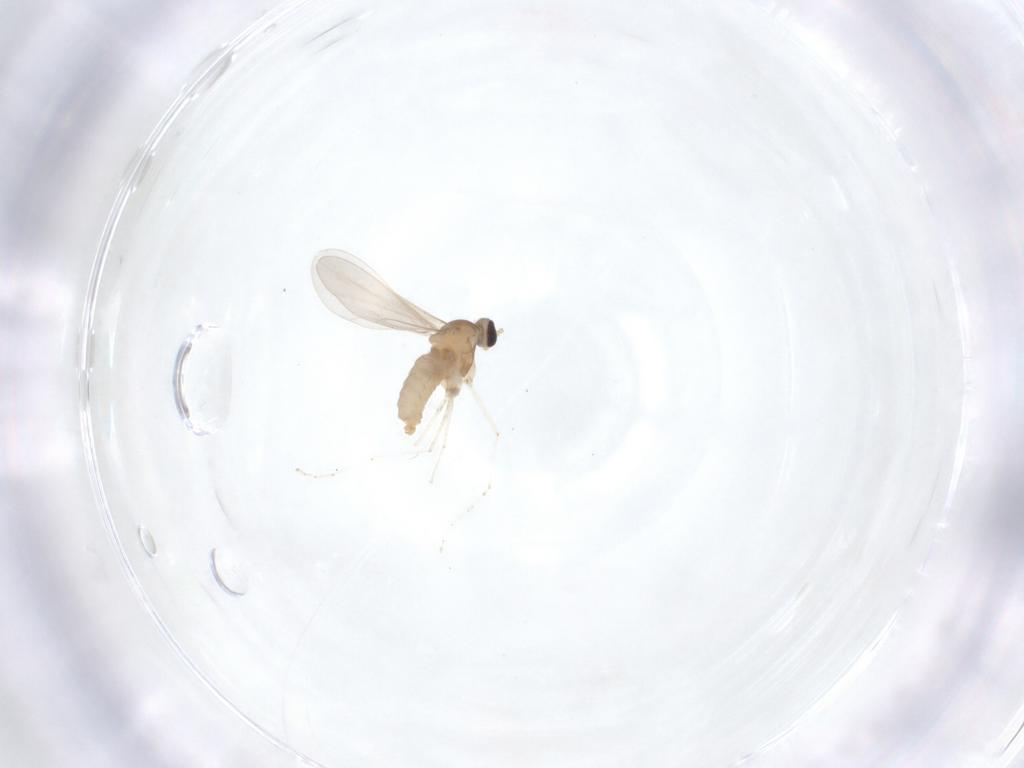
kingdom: Animalia
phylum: Arthropoda
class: Insecta
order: Diptera
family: Cecidomyiidae
